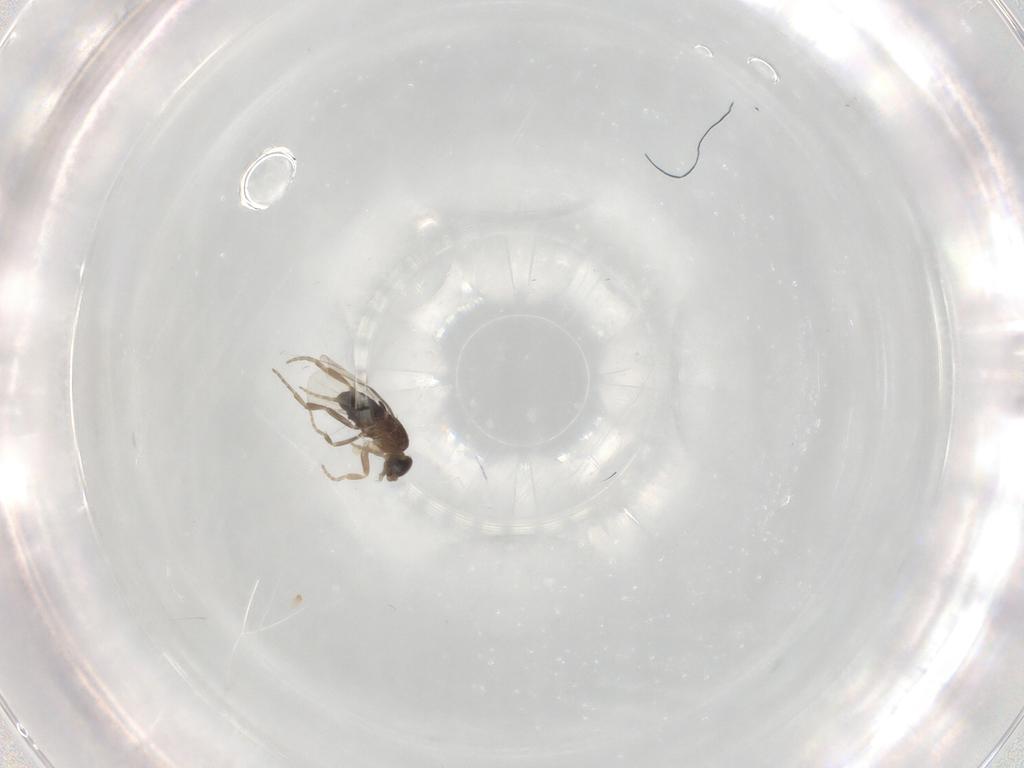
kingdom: Animalia
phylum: Arthropoda
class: Insecta
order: Diptera
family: Phoridae
